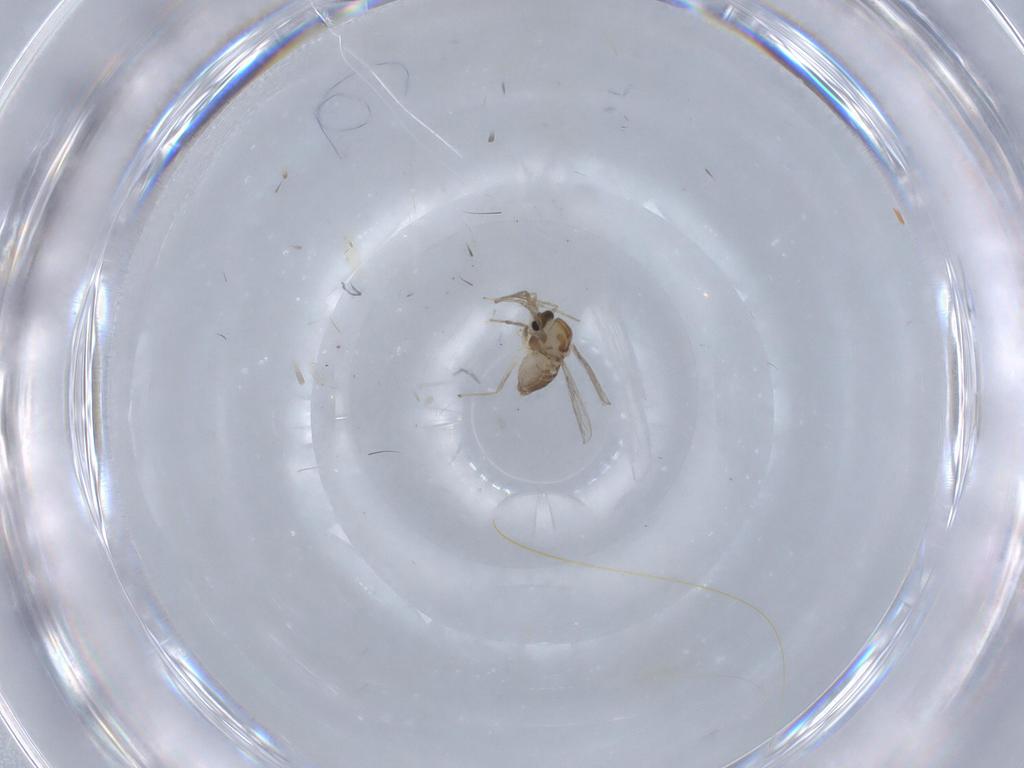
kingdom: Animalia
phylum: Arthropoda
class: Insecta
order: Diptera
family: Chironomidae
